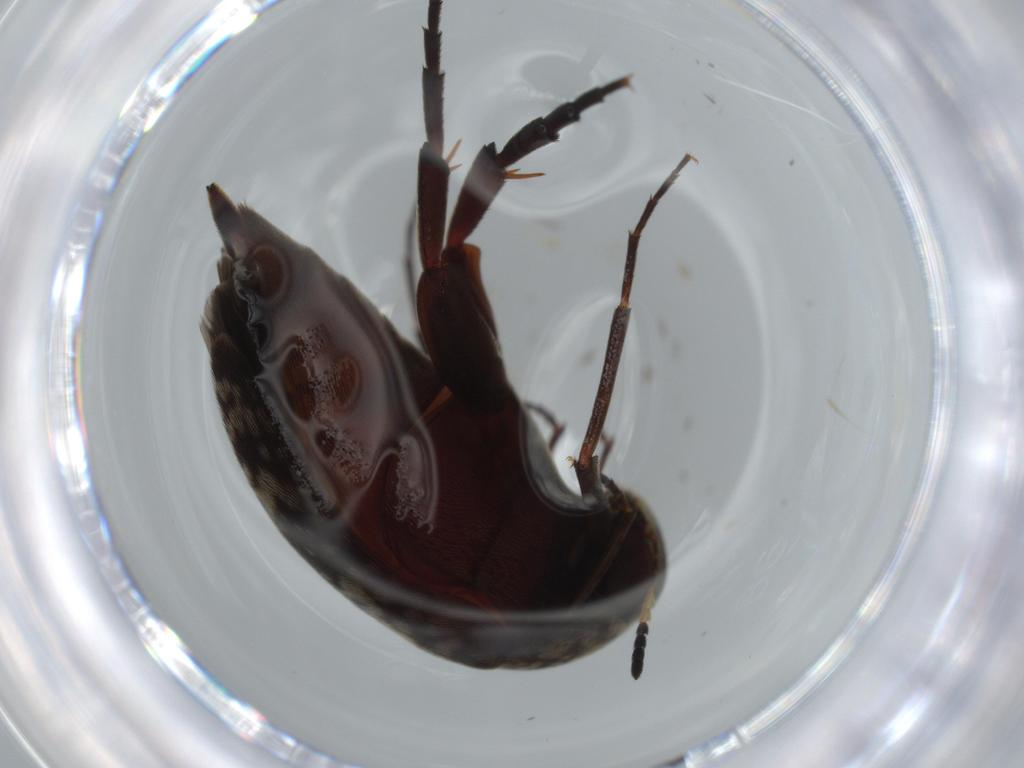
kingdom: Animalia
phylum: Arthropoda
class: Insecta
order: Coleoptera
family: Curculionidae
